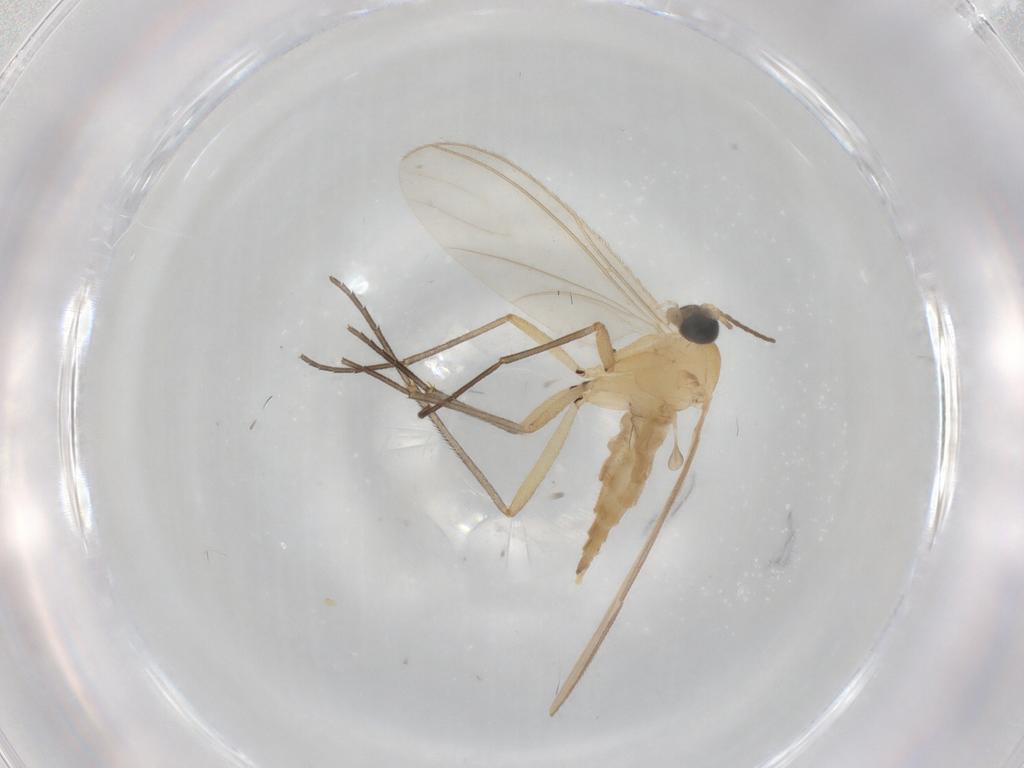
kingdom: Animalia
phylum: Arthropoda
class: Insecta
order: Diptera
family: Sciaridae
